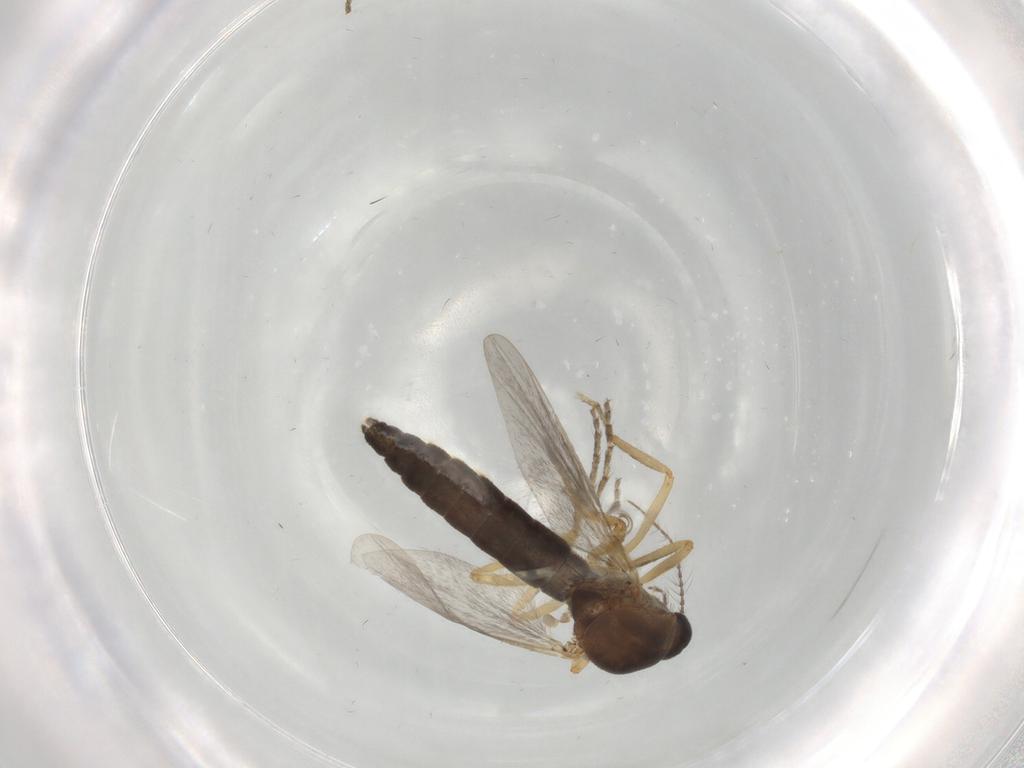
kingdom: Animalia
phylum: Arthropoda
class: Insecta
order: Diptera
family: Ceratopogonidae
